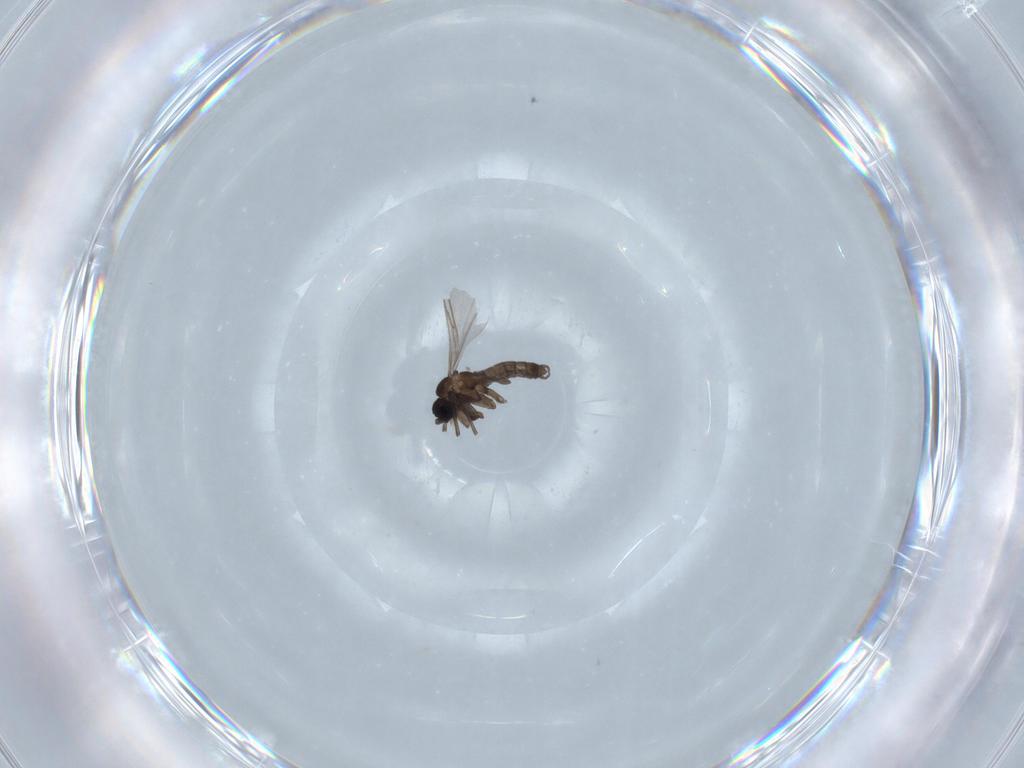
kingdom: Animalia
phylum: Arthropoda
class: Insecta
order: Diptera
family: Sciaridae
